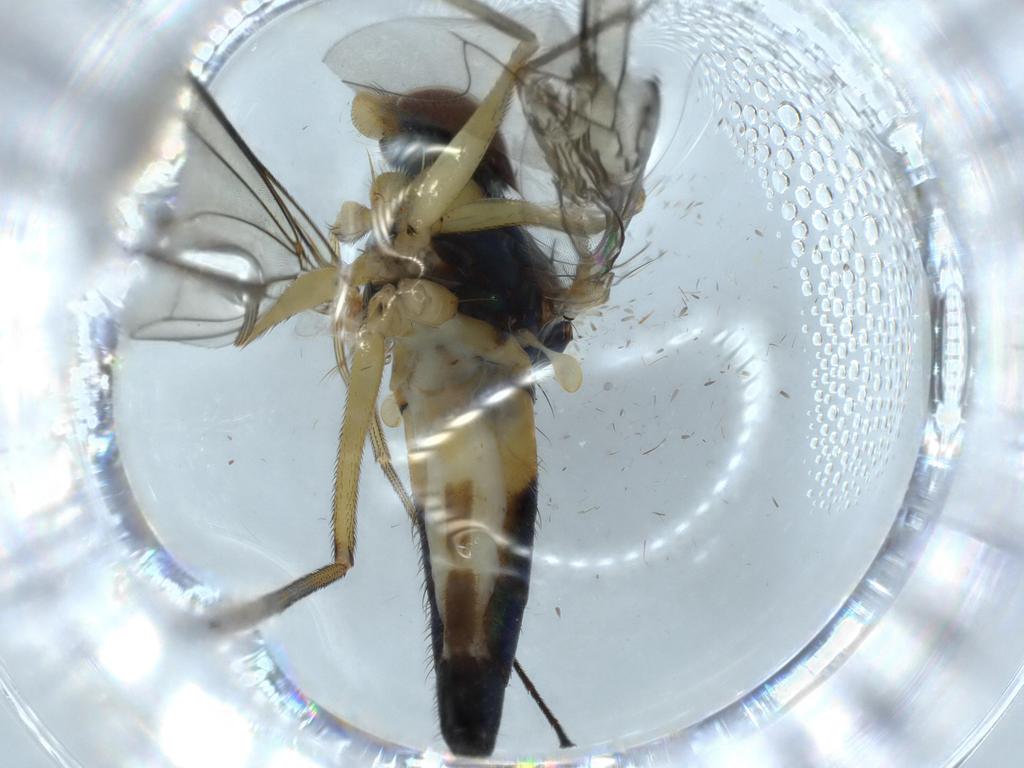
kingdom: Animalia
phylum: Arthropoda
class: Insecta
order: Diptera
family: Dolichopodidae
